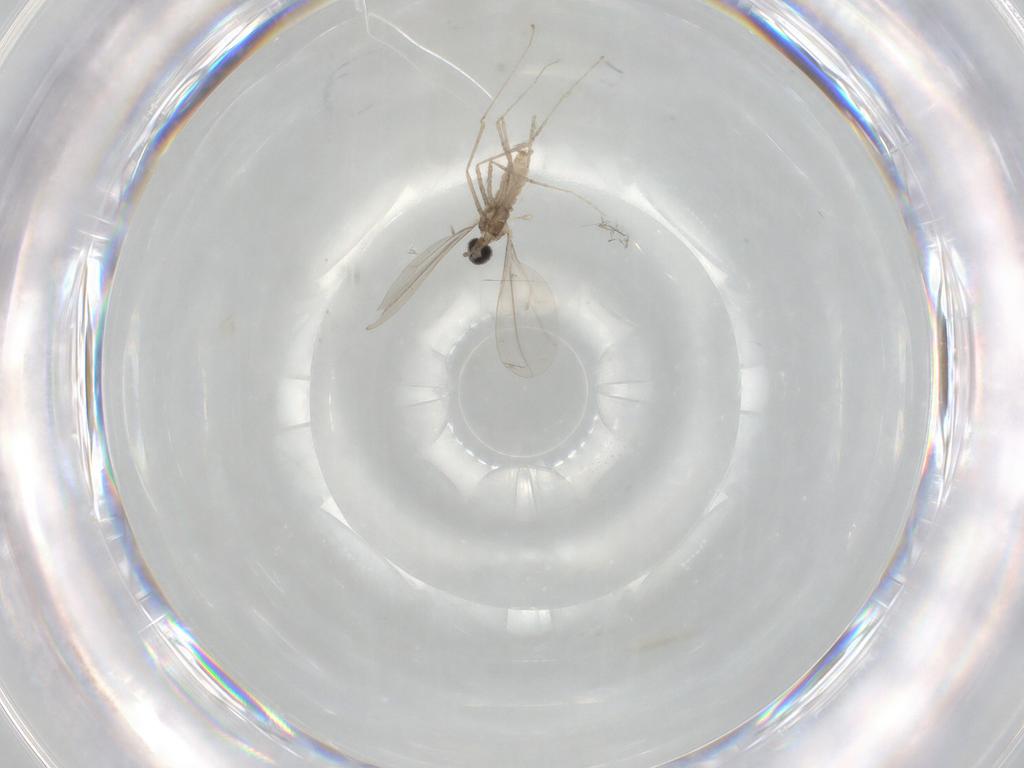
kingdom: Animalia
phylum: Arthropoda
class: Insecta
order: Diptera
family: Cecidomyiidae
